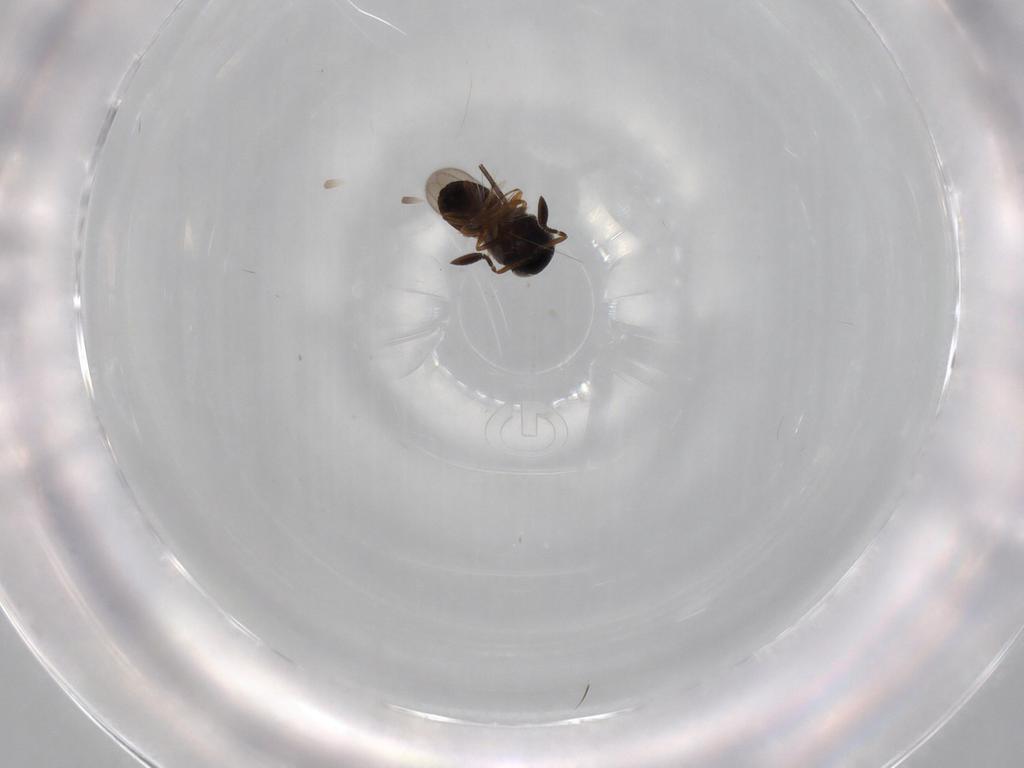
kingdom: Animalia
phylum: Arthropoda
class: Insecta
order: Hymenoptera
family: Scelionidae
